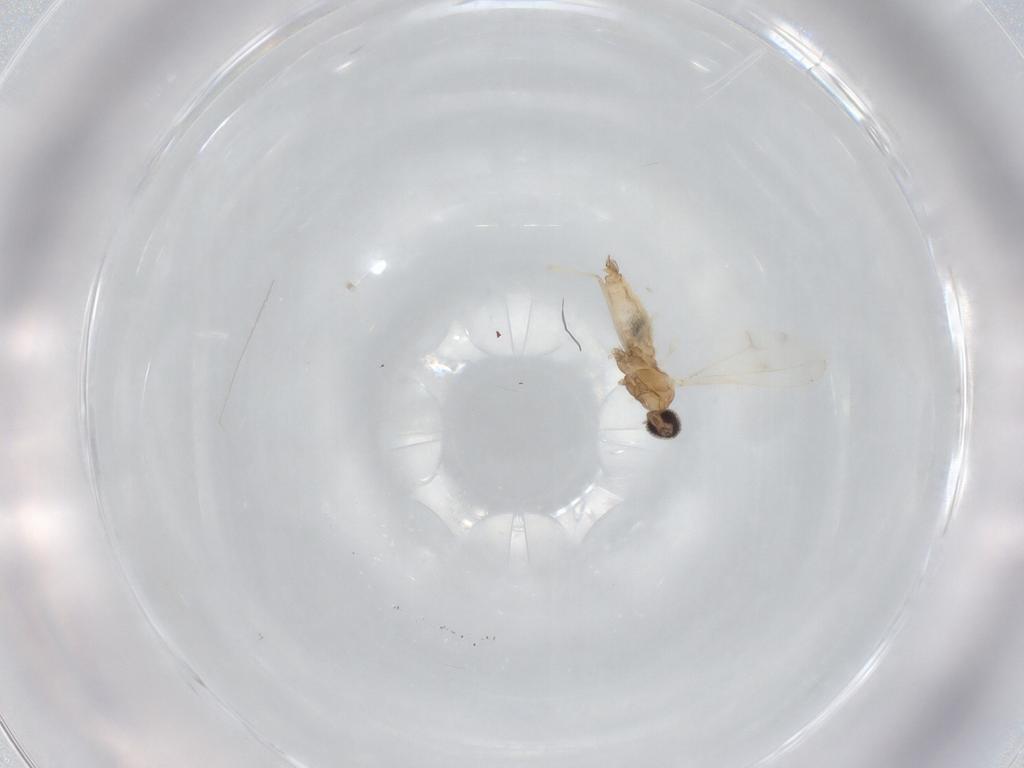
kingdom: Animalia
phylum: Arthropoda
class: Insecta
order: Diptera
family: Cecidomyiidae
